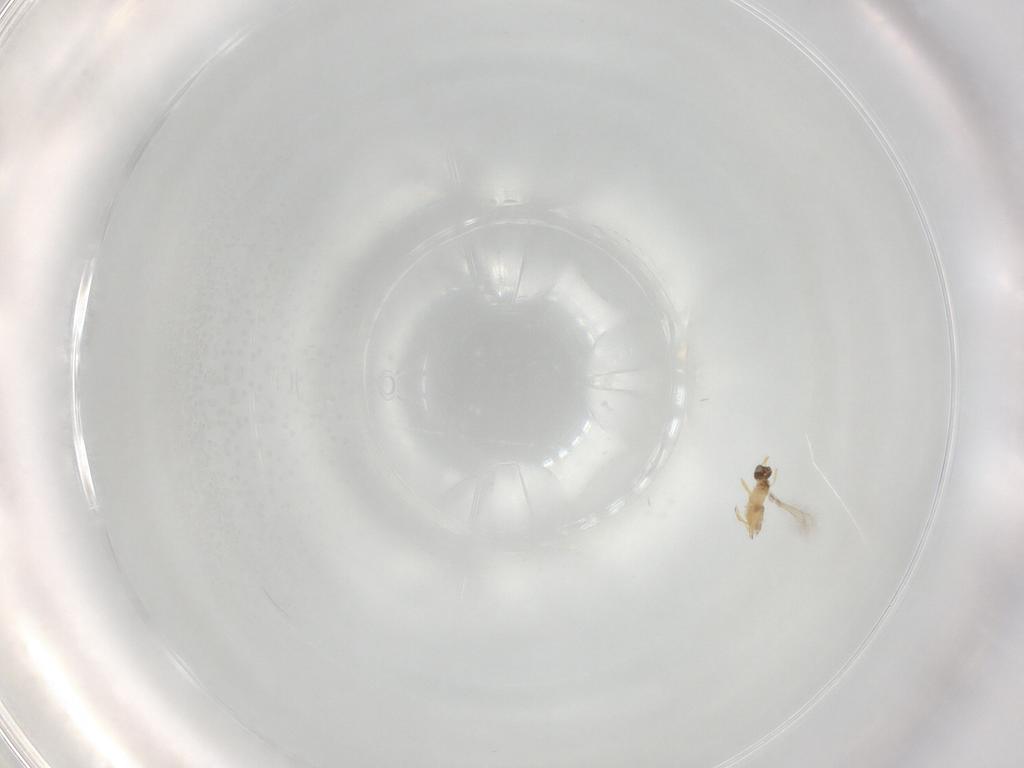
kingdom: Animalia
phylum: Arthropoda
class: Insecta
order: Hymenoptera
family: Mymaridae
